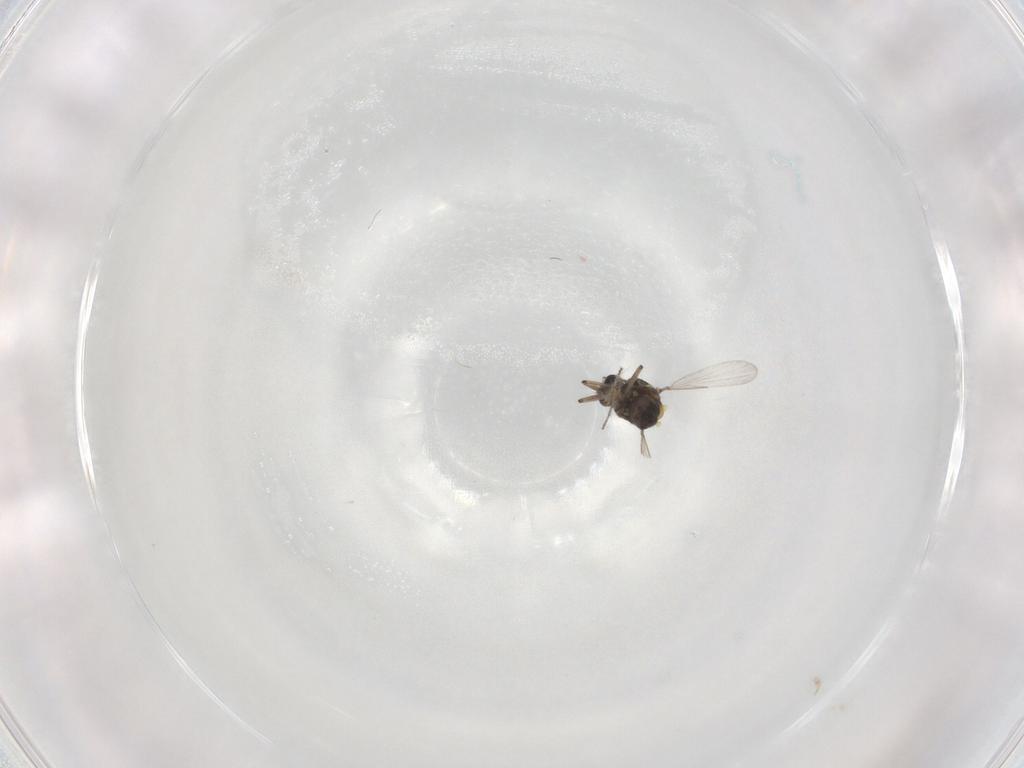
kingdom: Animalia
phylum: Arthropoda
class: Insecta
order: Diptera
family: Ceratopogonidae
